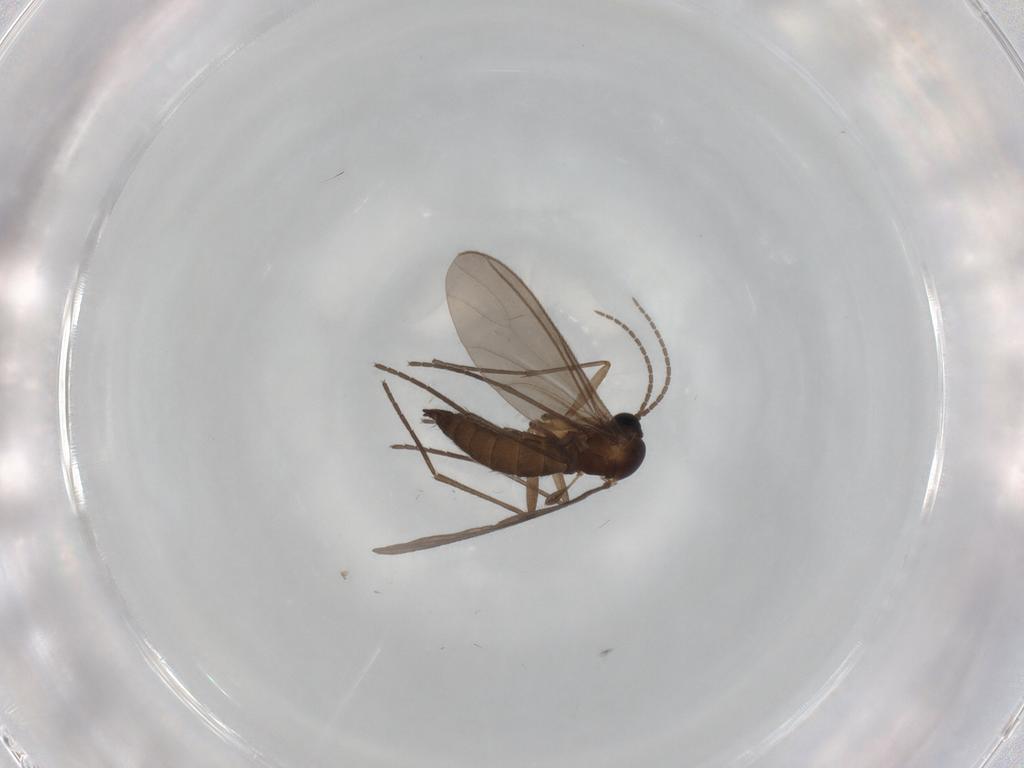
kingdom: Animalia
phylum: Arthropoda
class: Insecta
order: Diptera
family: Sciaridae
